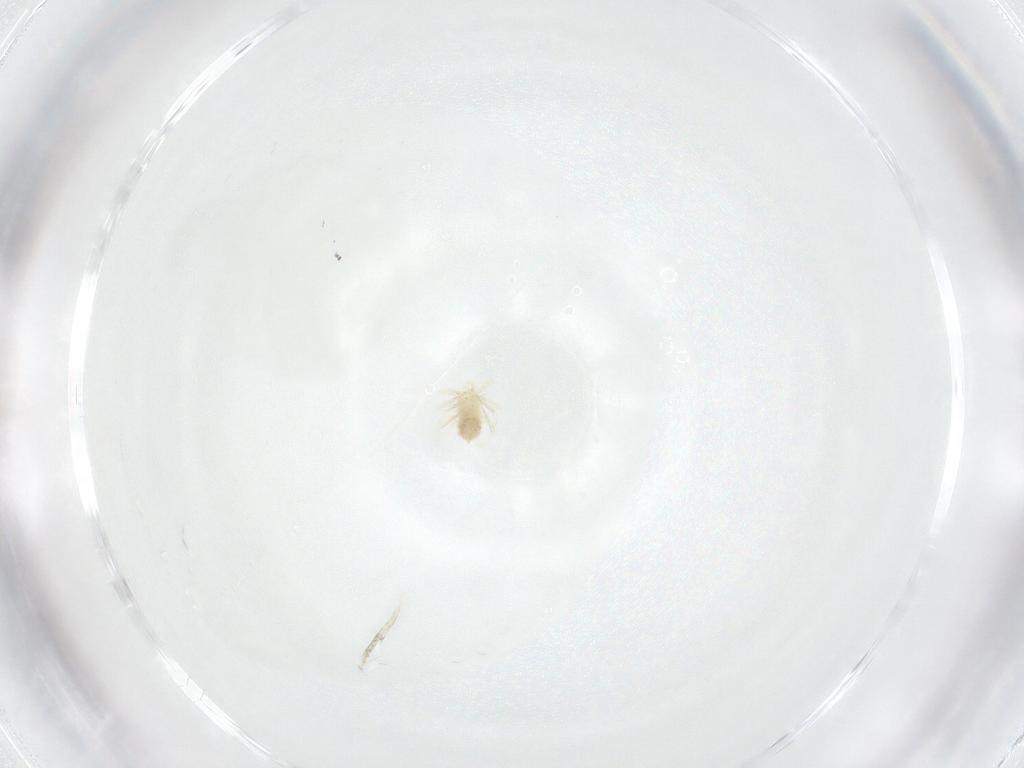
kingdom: Animalia
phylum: Arthropoda
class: Arachnida
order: Trombidiformes
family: Anystidae
